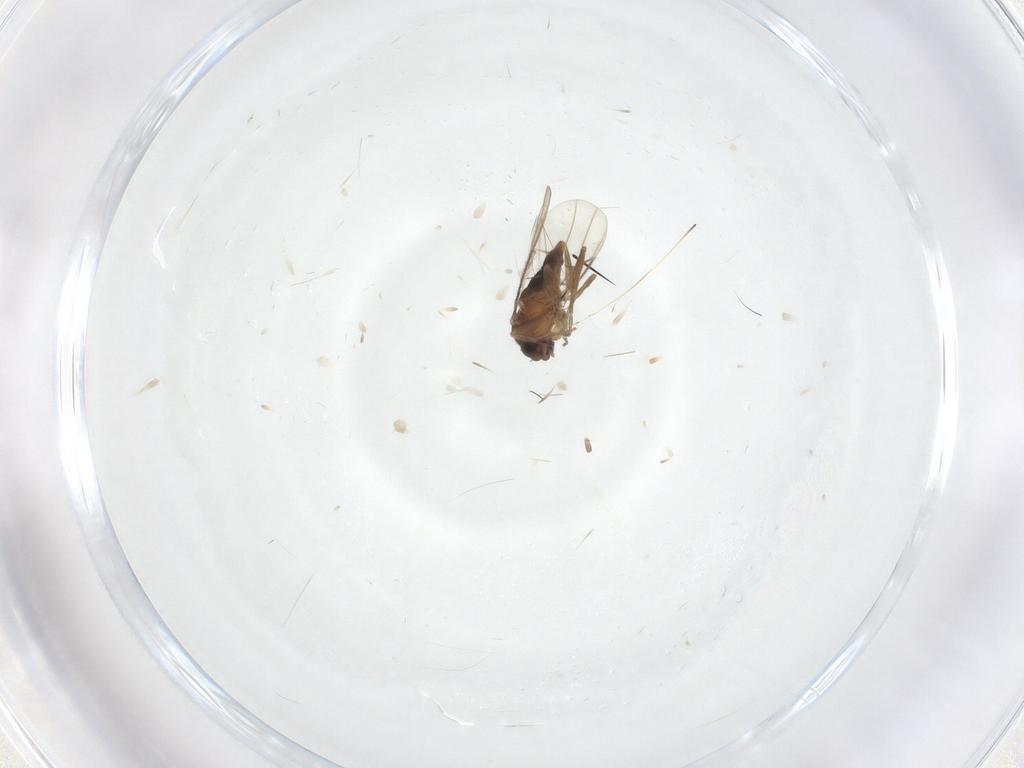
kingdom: Animalia
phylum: Arthropoda
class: Insecta
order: Diptera
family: Phoridae
